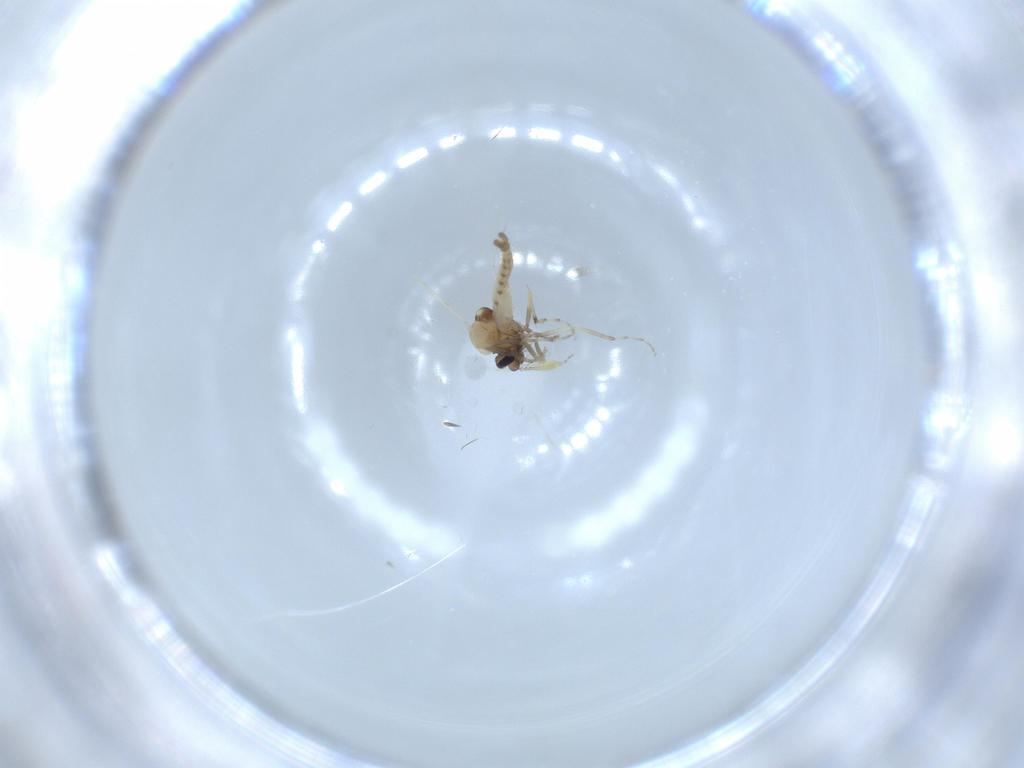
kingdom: Animalia
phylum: Arthropoda
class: Insecta
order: Diptera
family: Ceratopogonidae
